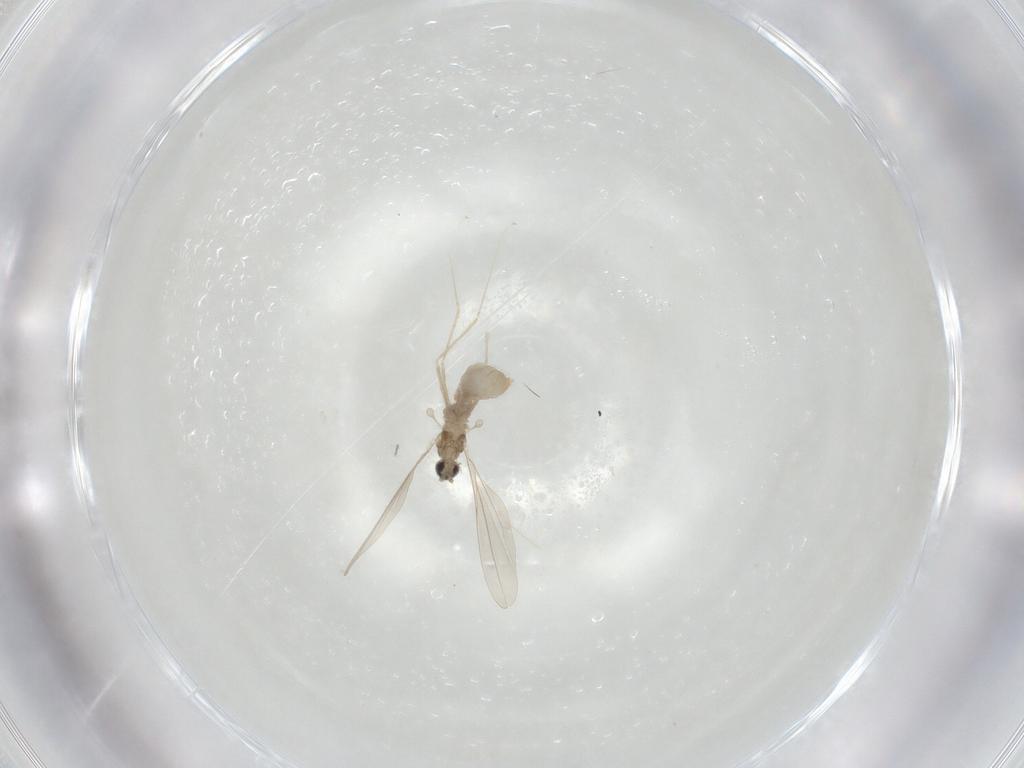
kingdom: Animalia
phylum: Arthropoda
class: Insecta
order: Diptera
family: Cecidomyiidae
